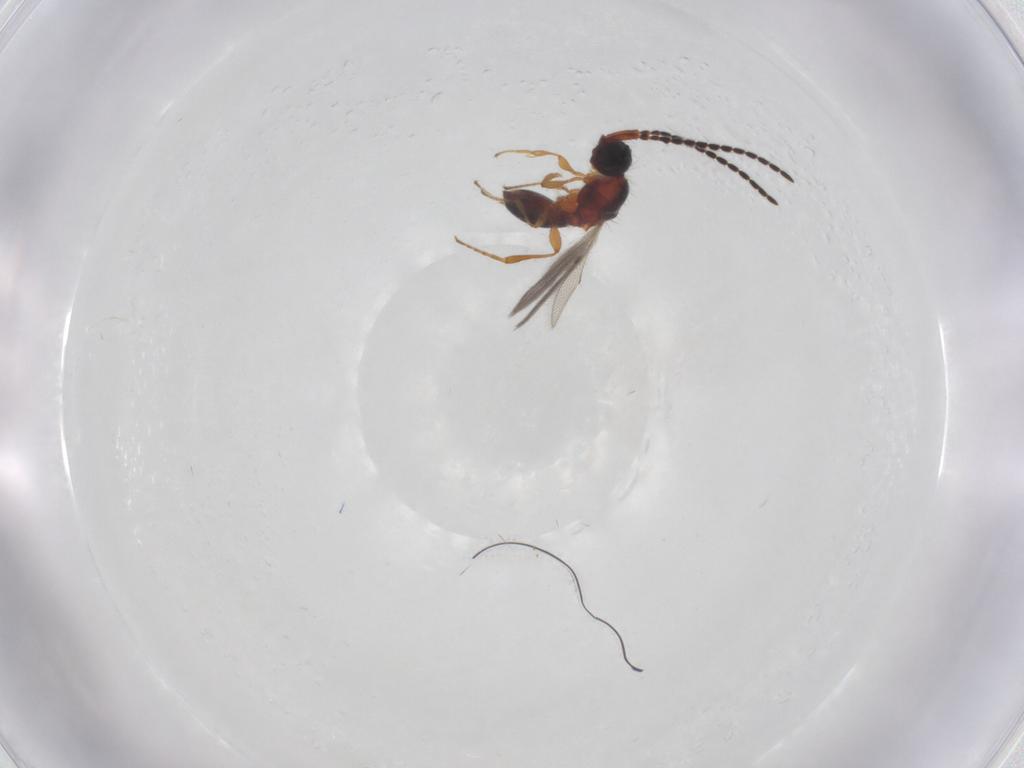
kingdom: Animalia
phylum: Arthropoda
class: Insecta
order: Hymenoptera
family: Diapriidae
